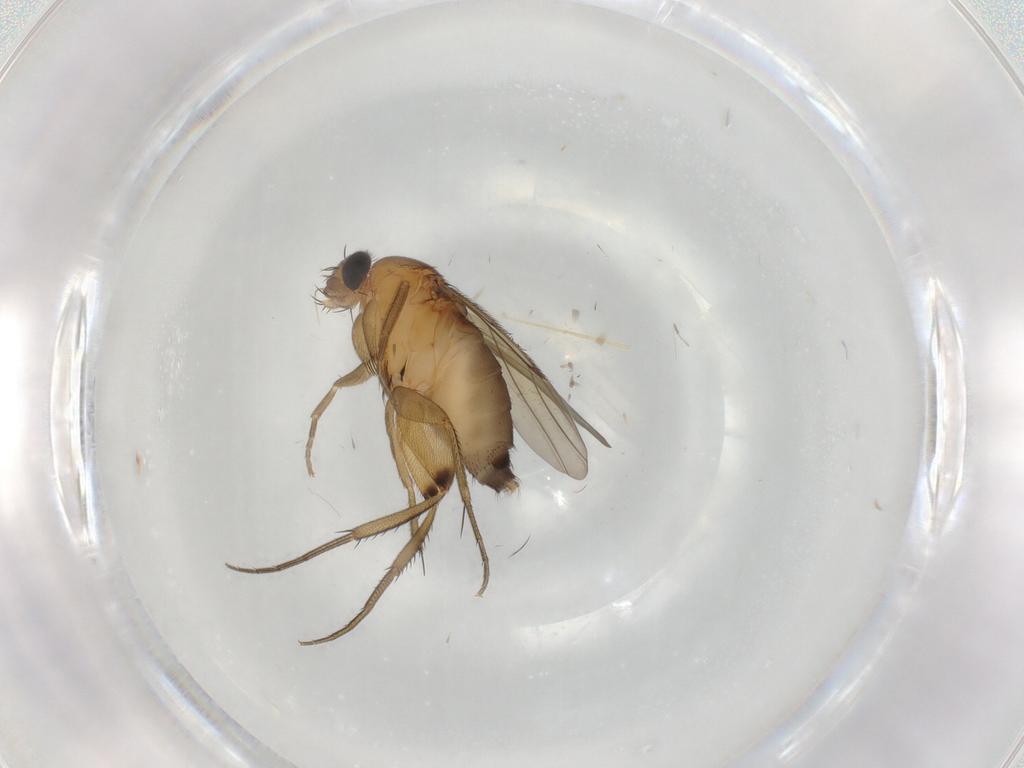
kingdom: Animalia
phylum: Arthropoda
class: Insecta
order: Diptera
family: Phoridae
